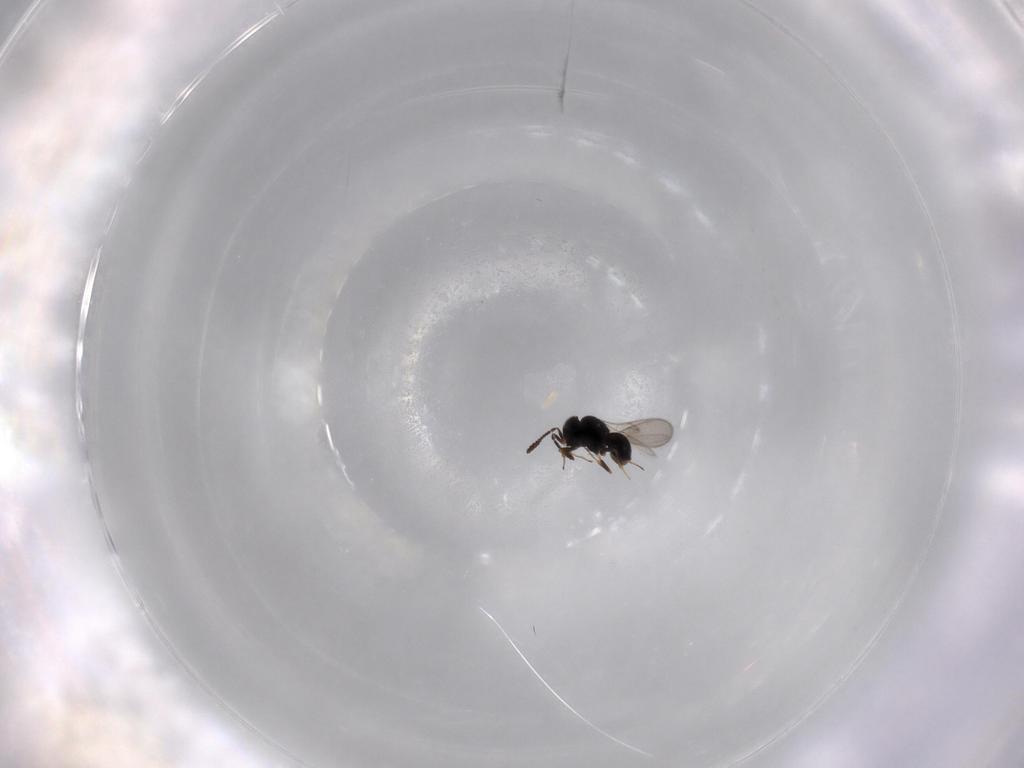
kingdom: Animalia
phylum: Arthropoda
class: Insecta
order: Hymenoptera
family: Scelionidae
